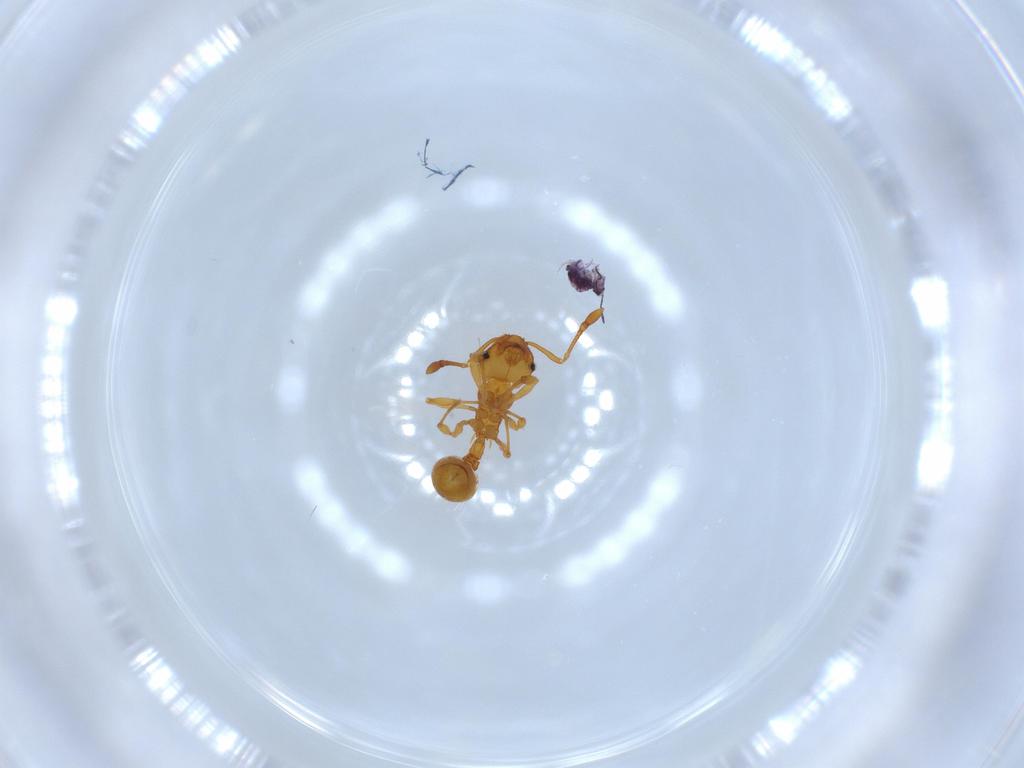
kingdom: Animalia
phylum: Arthropoda
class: Insecta
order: Hymenoptera
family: Formicidae
